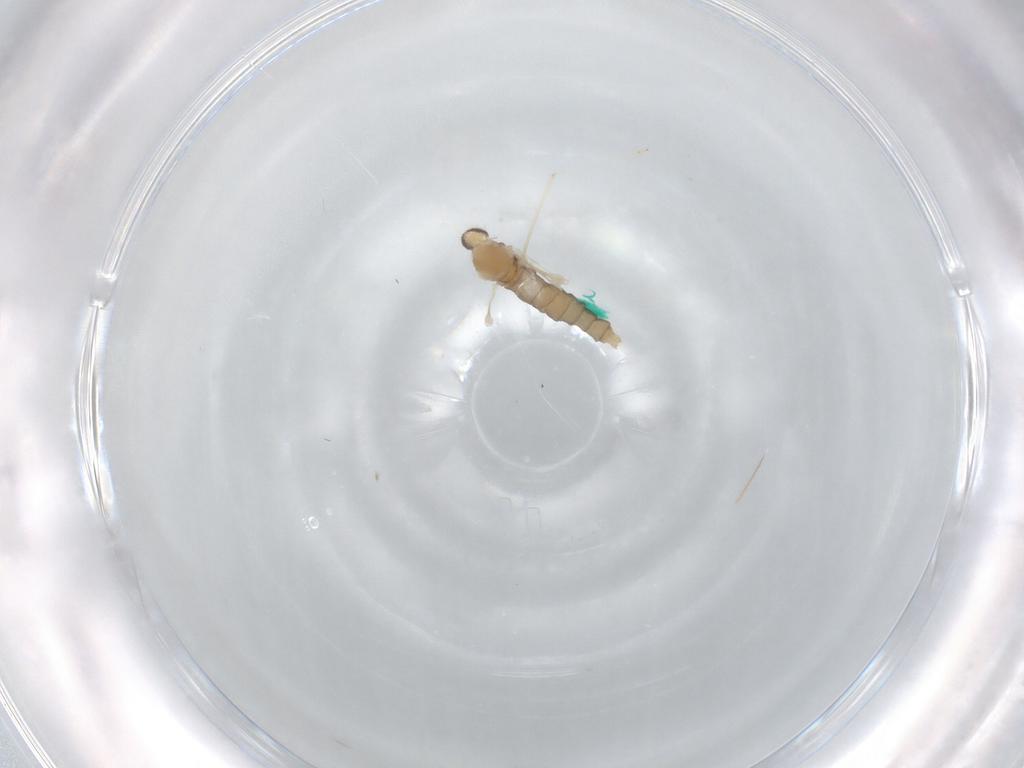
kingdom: Animalia
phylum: Arthropoda
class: Insecta
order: Diptera
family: Cecidomyiidae
